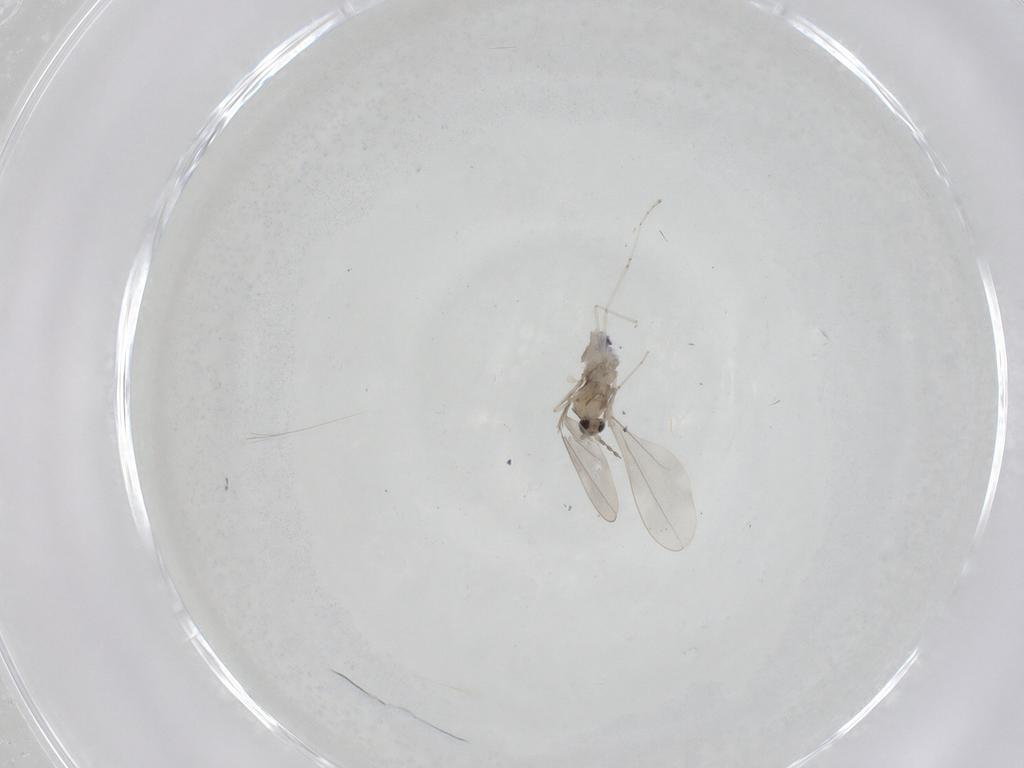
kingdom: Animalia
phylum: Arthropoda
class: Insecta
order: Diptera
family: Cecidomyiidae
